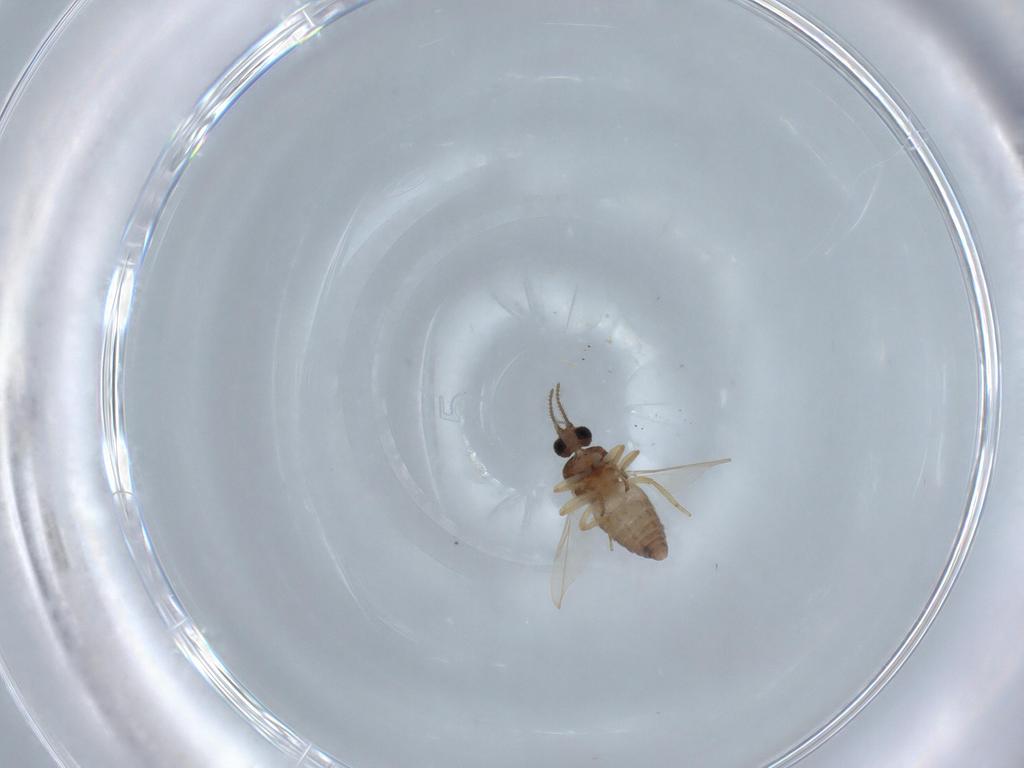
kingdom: Animalia
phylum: Arthropoda
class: Insecta
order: Diptera
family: Ceratopogonidae
